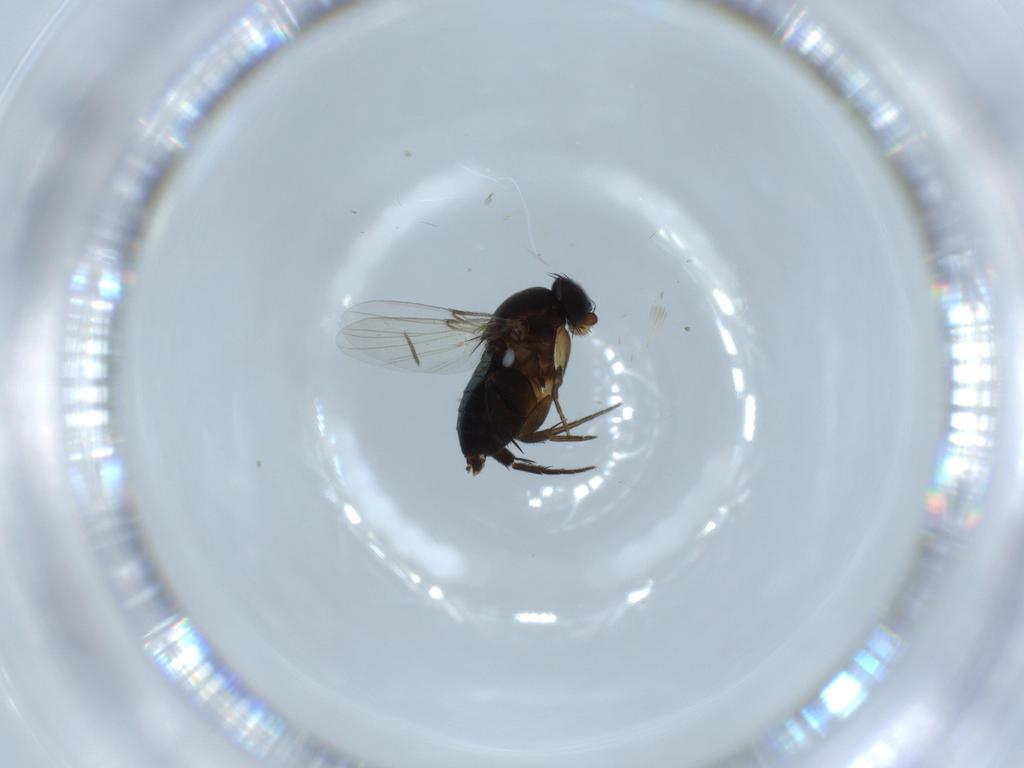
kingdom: Animalia
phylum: Arthropoda
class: Insecta
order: Diptera
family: Phoridae
